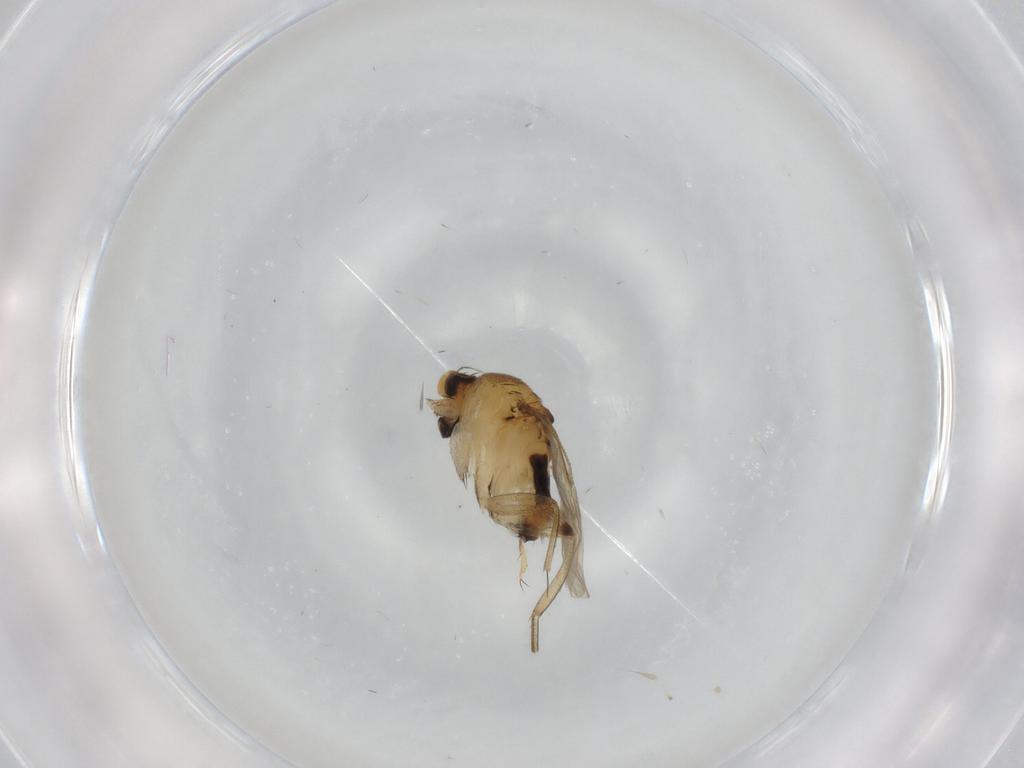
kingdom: Animalia
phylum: Arthropoda
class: Insecta
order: Diptera
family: Phoridae
